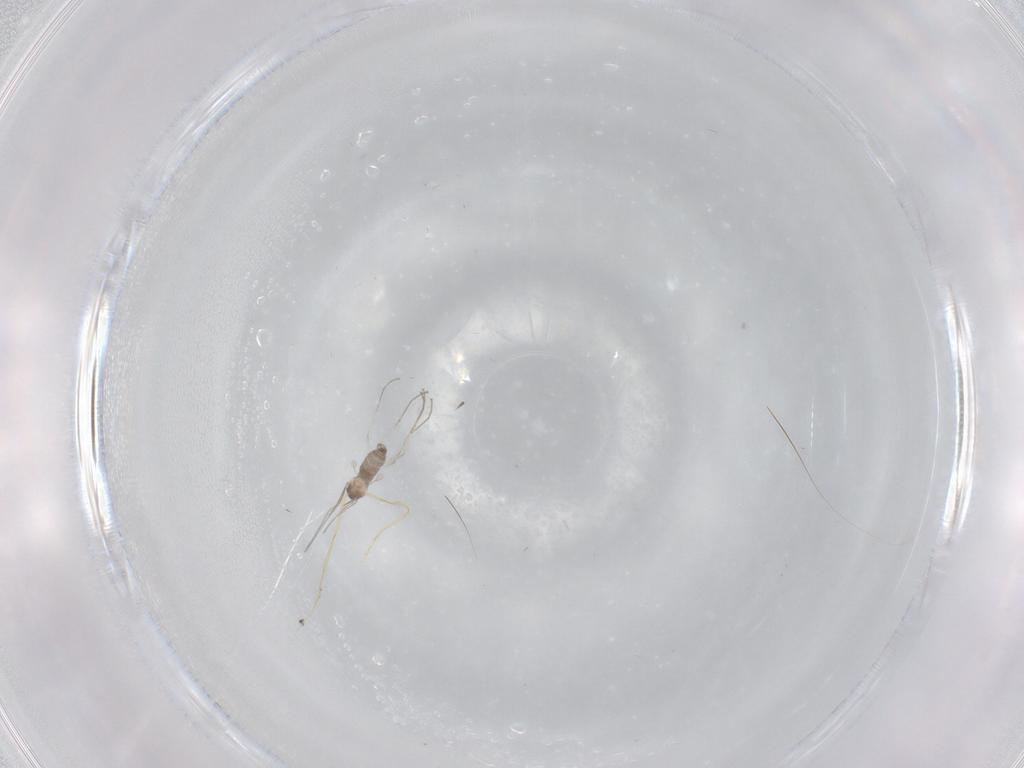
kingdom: Animalia
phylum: Arthropoda
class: Insecta
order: Diptera
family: Cecidomyiidae
